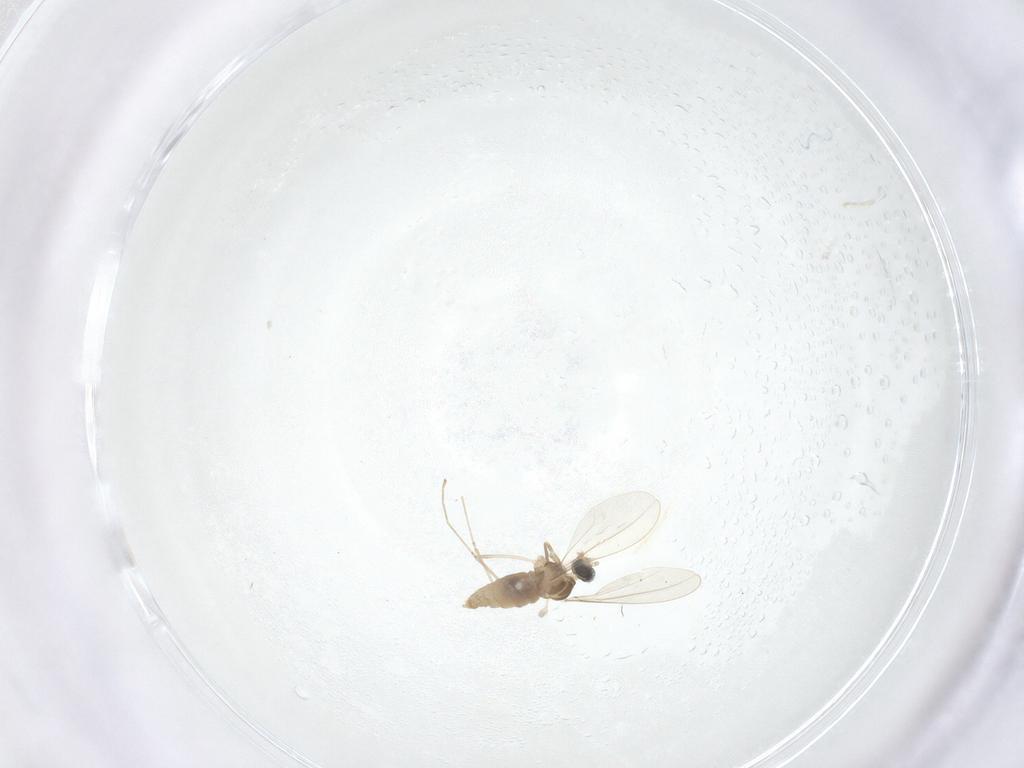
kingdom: Animalia
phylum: Arthropoda
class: Insecta
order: Diptera
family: Cecidomyiidae
